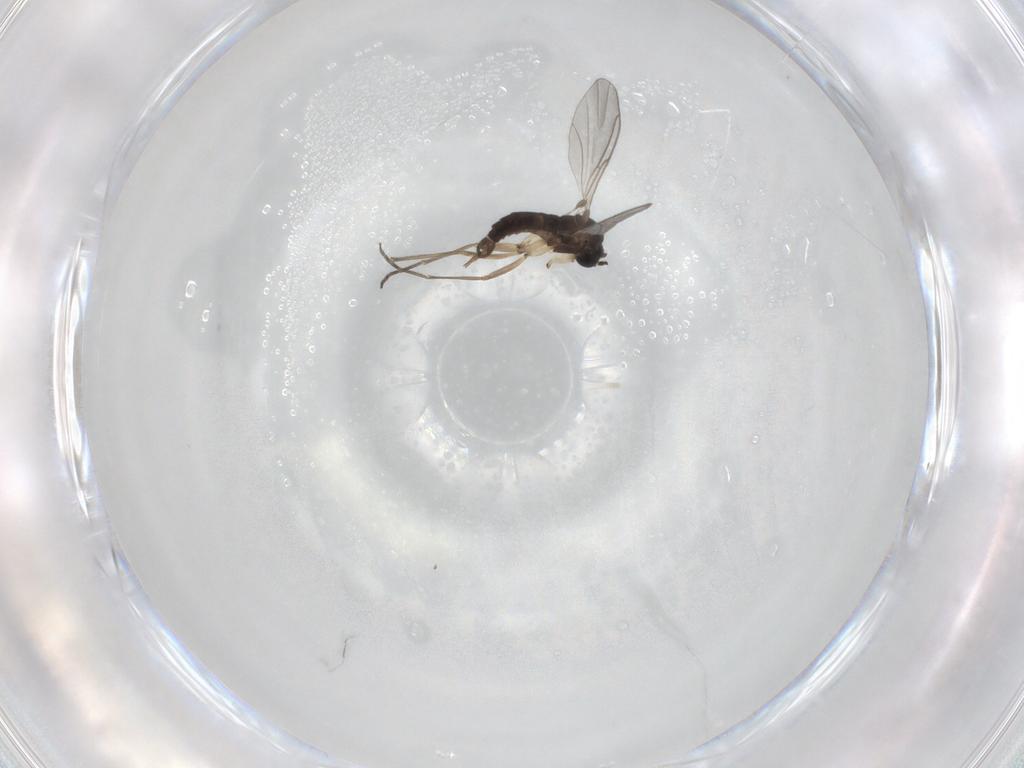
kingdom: Animalia
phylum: Arthropoda
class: Insecta
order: Diptera
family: Sciaridae
